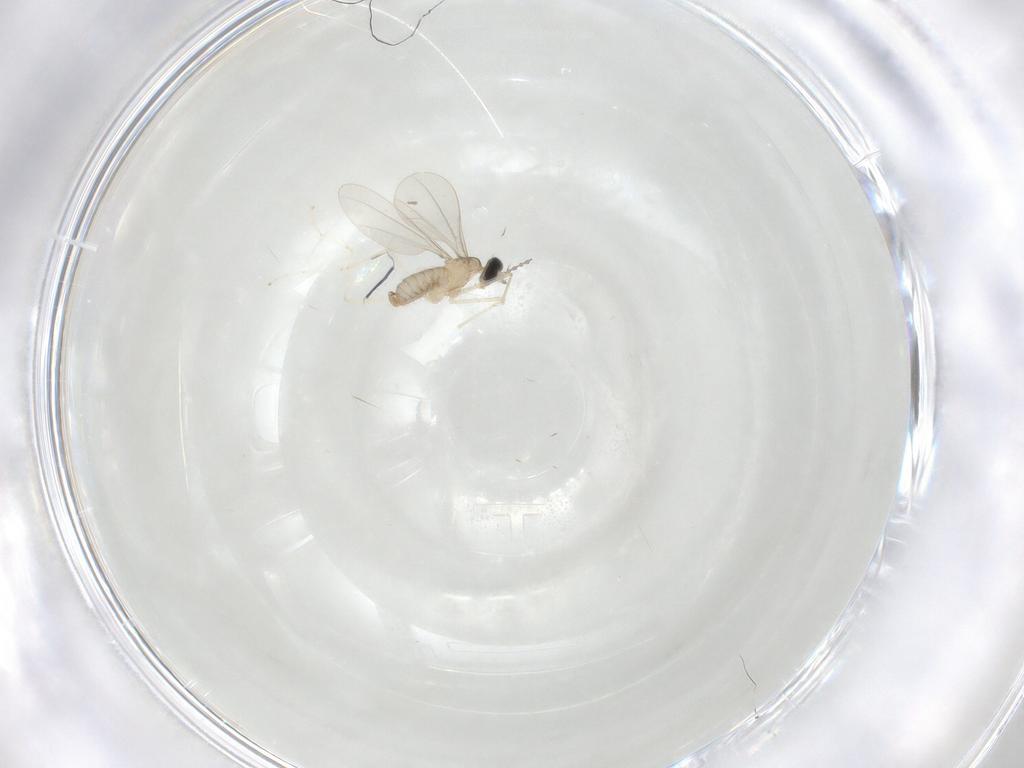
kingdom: Animalia
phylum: Arthropoda
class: Insecta
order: Diptera
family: Cecidomyiidae
